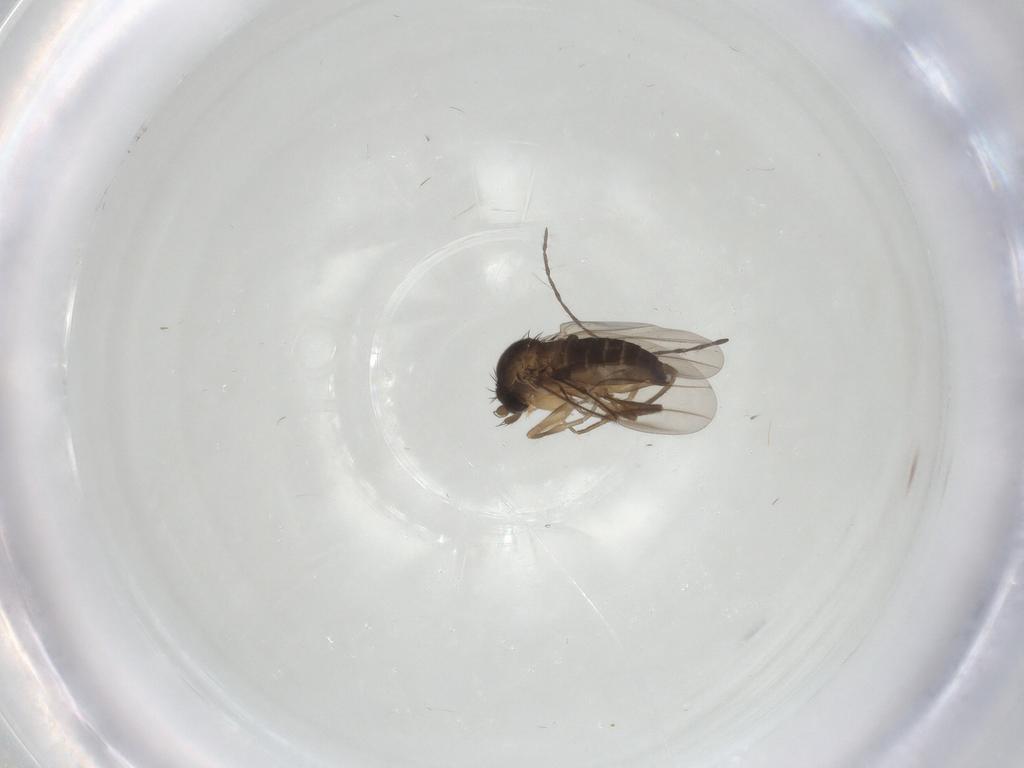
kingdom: Animalia
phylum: Arthropoda
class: Insecta
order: Diptera
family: Phoridae
